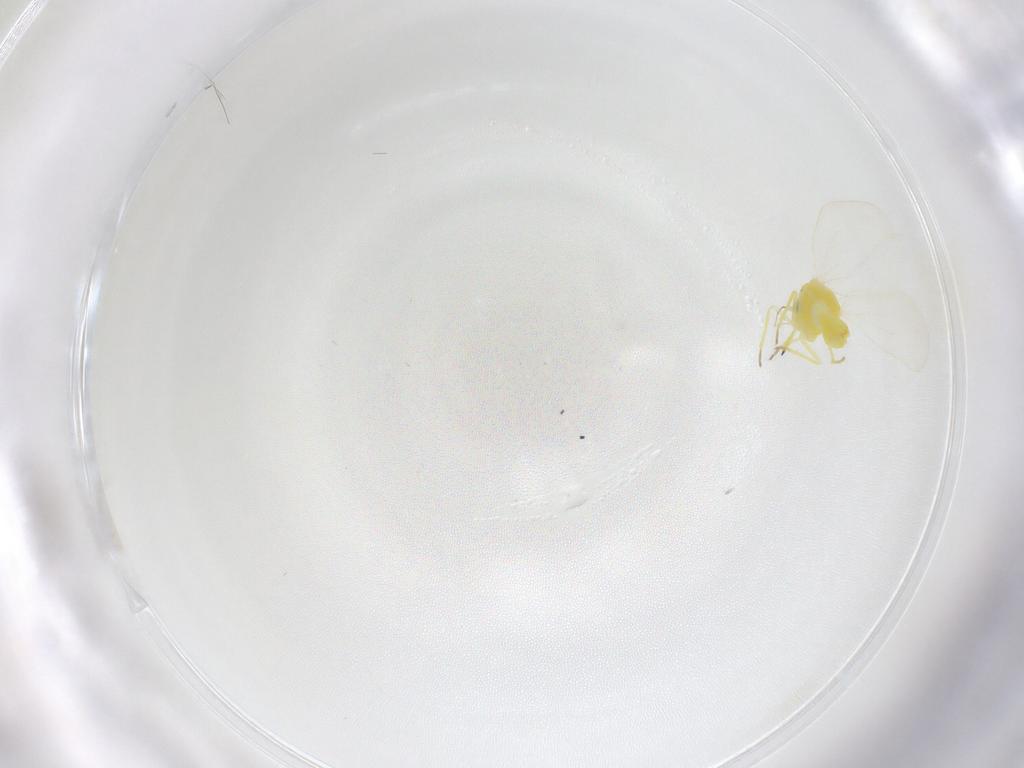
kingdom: Animalia
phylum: Arthropoda
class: Insecta
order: Hemiptera
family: Aleyrodidae
